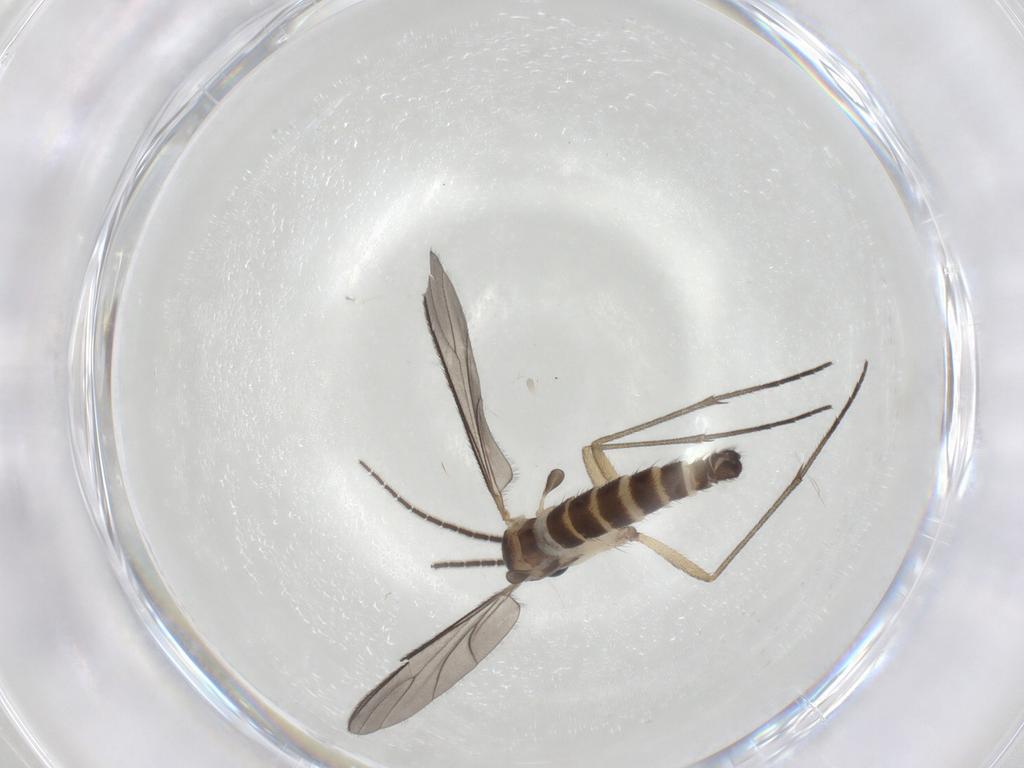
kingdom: Animalia
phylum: Arthropoda
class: Insecta
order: Diptera
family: Sciaridae
